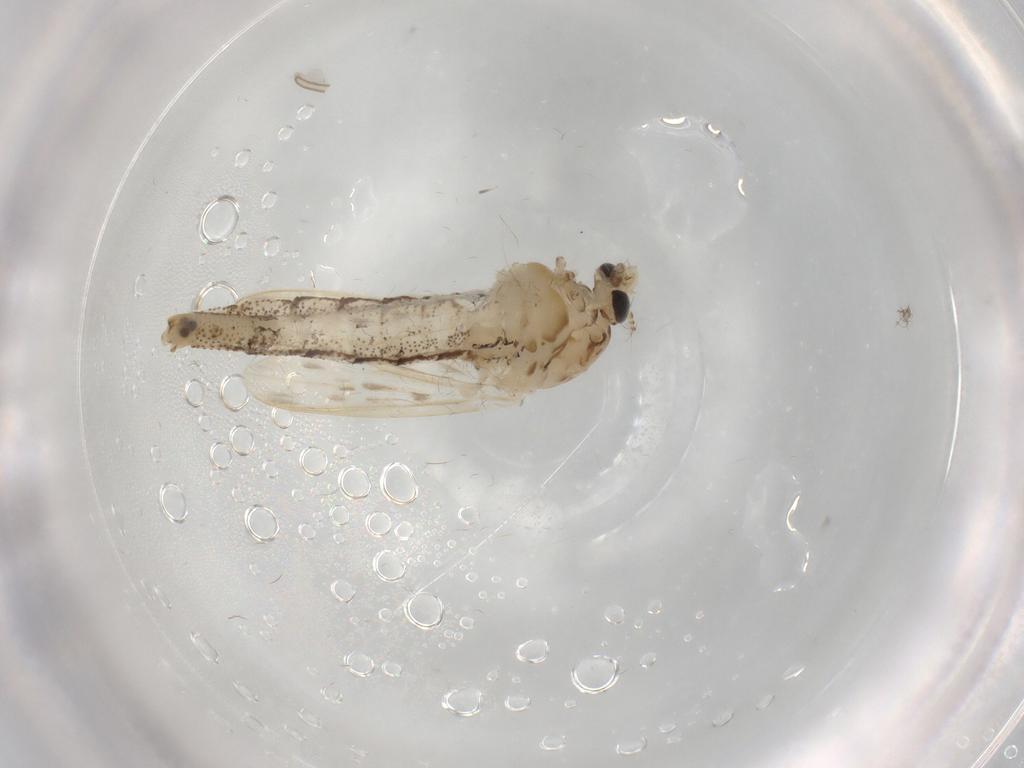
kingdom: Animalia
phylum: Arthropoda
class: Insecta
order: Diptera
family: Chaoboridae
